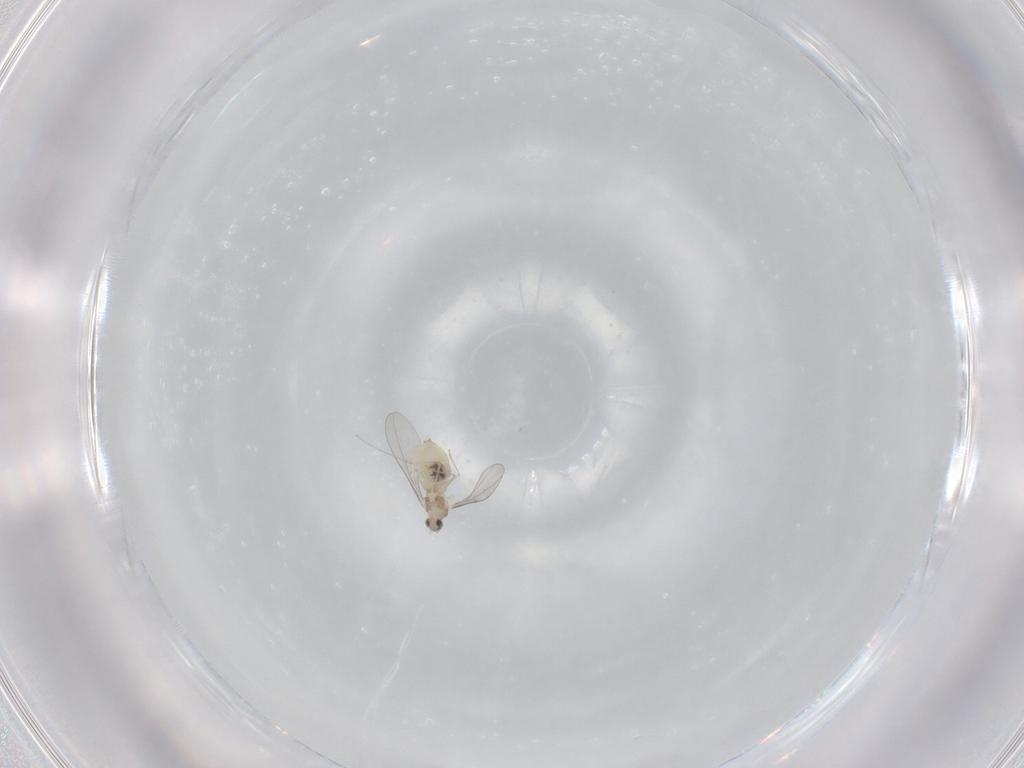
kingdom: Animalia
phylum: Arthropoda
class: Insecta
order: Diptera
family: Cecidomyiidae
